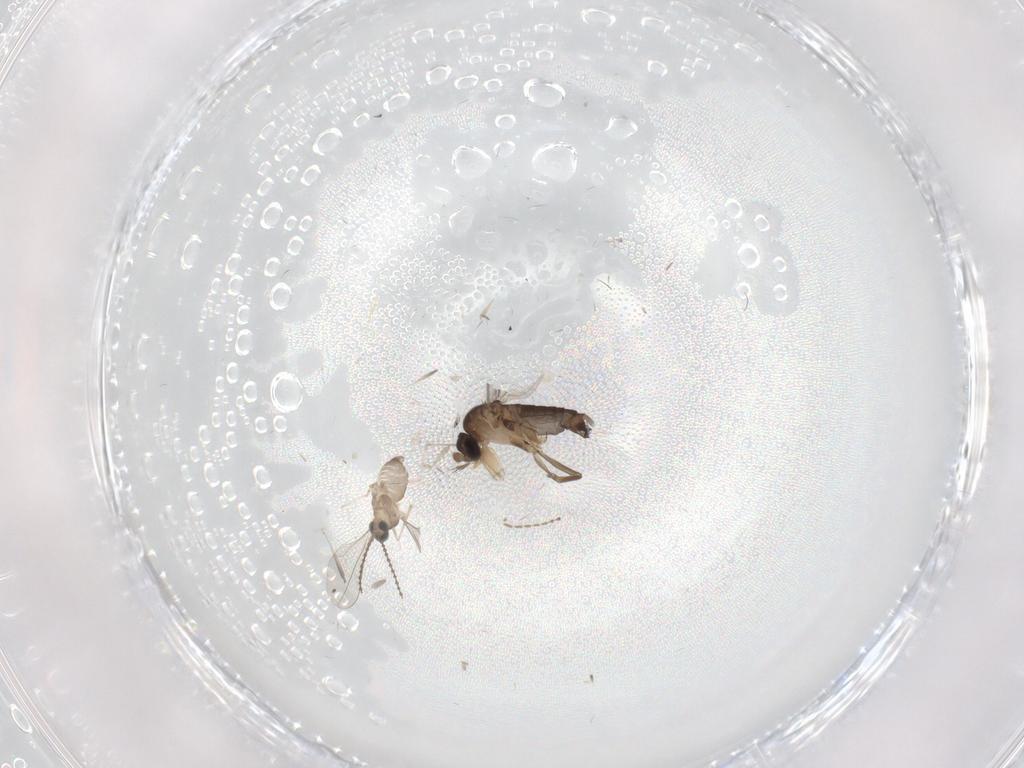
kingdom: Animalia
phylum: Arthropoda
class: Insecta
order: Diptera
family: Phoridae
